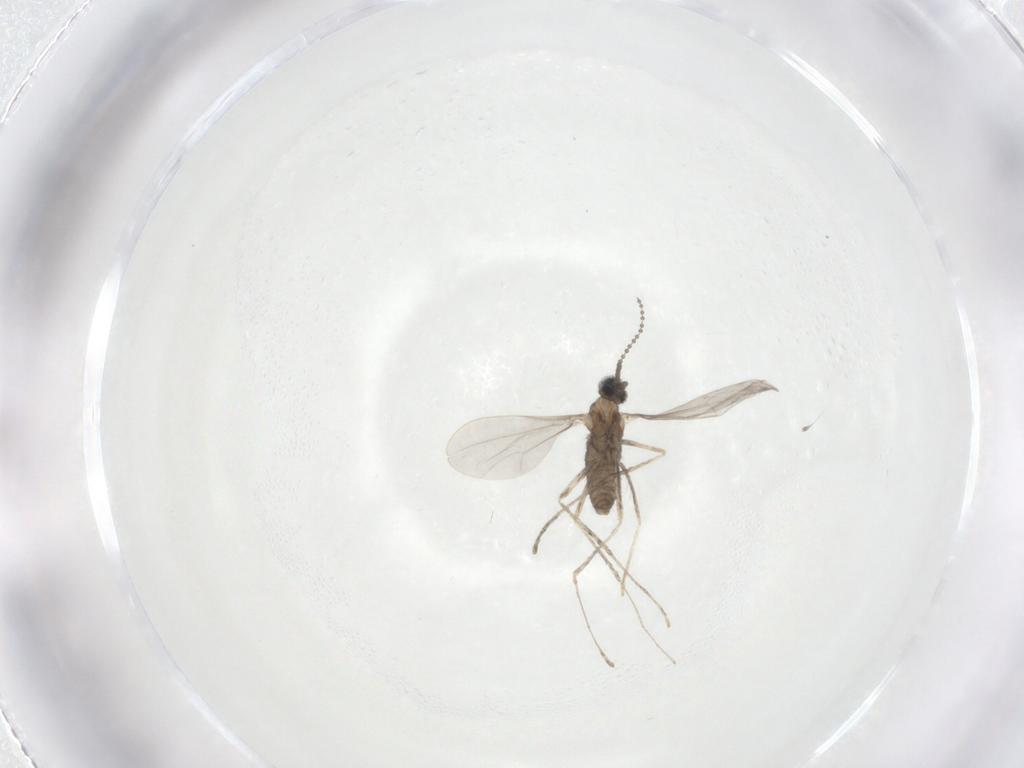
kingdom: Animalia
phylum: Arthropoda
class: Insecta
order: Diptera
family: Cecidomyiidae
